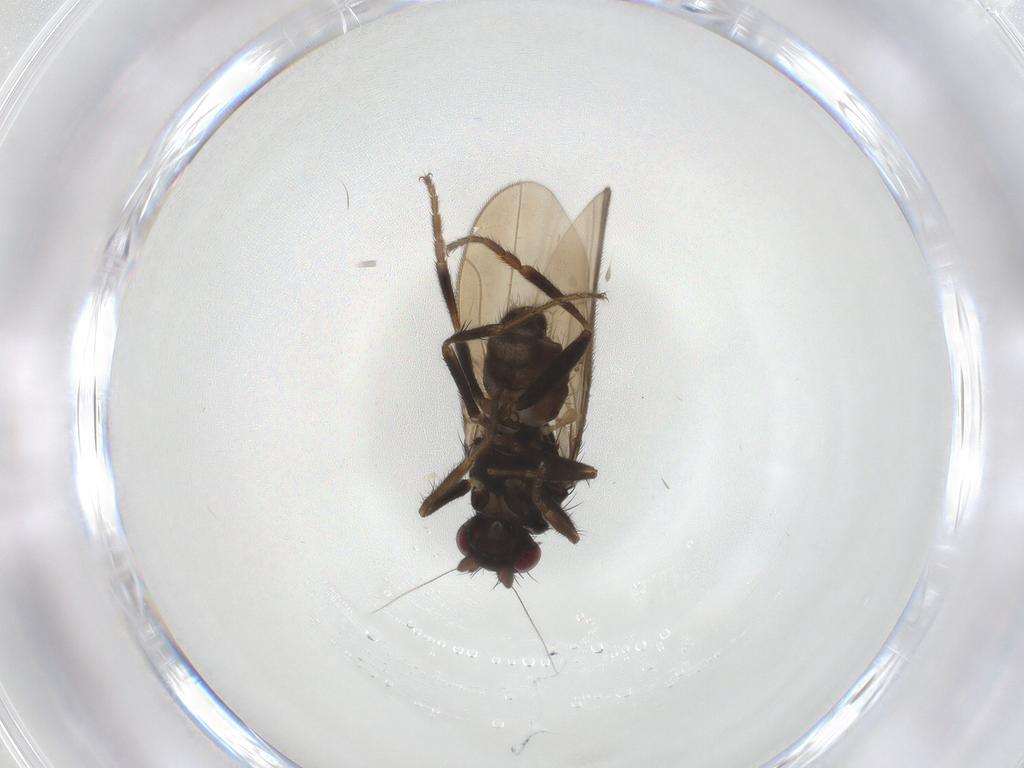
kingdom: Animalia
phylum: Arthropoda
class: Insecta
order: Diptera
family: Sphaeroceridae
